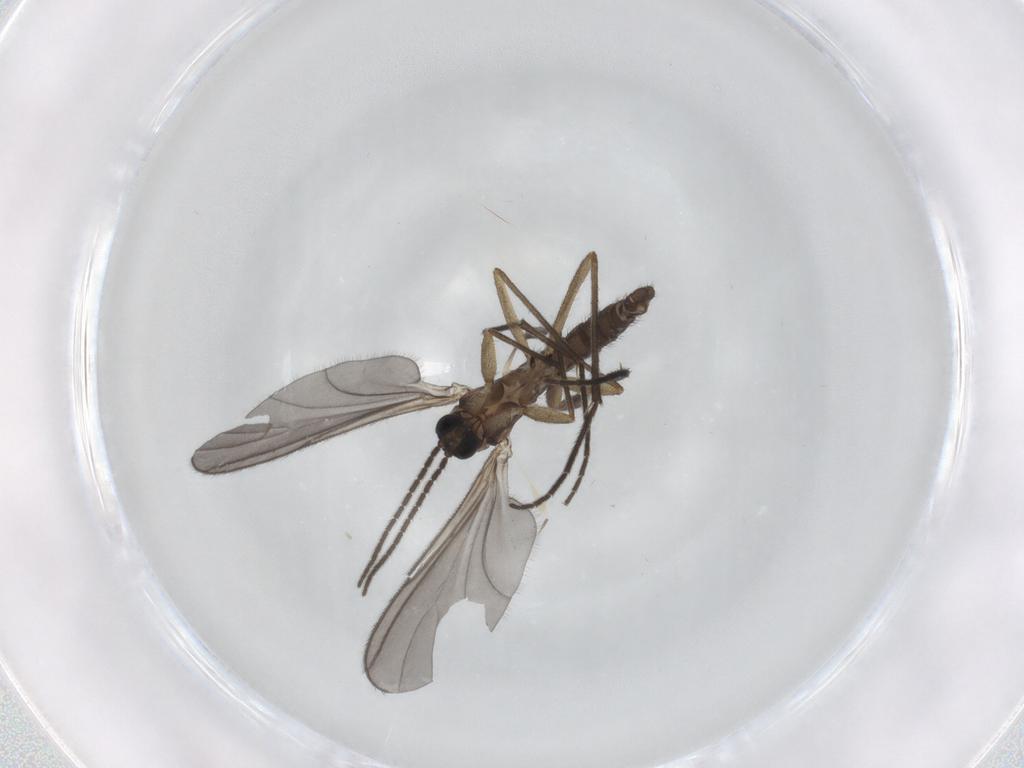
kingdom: Animalia
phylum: Arthropoda
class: Insecta
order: Diptera
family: Sciaridae
